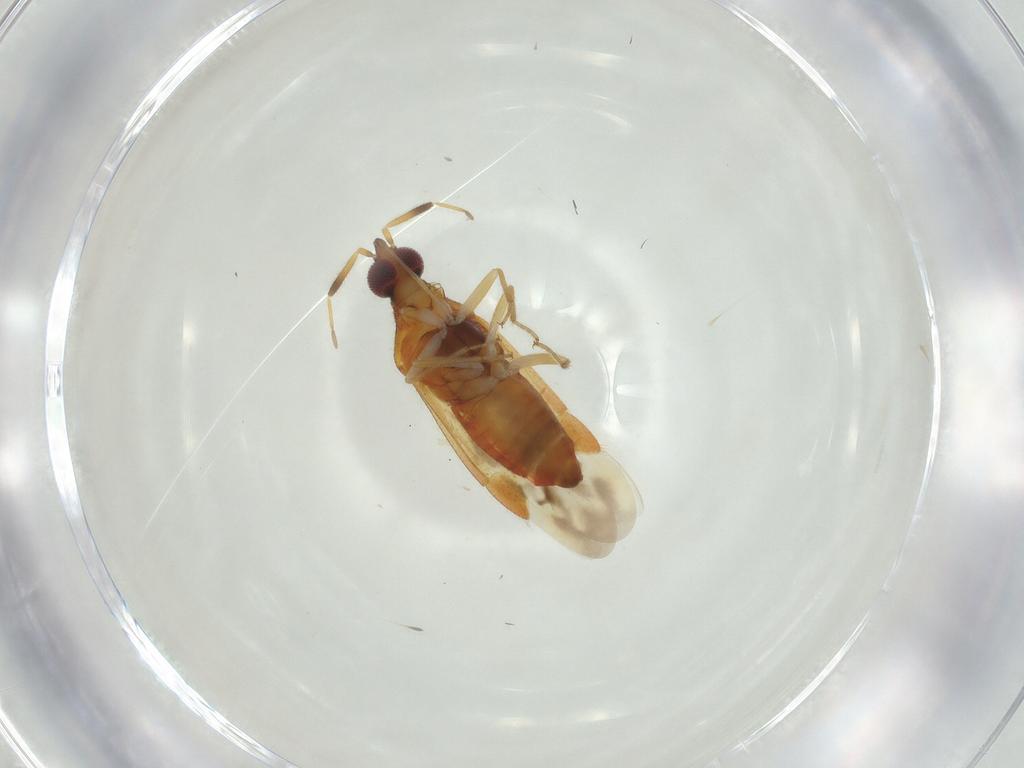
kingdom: Animalia
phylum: Arthropoda
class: Insecta
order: Hemiptera
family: Miridae
